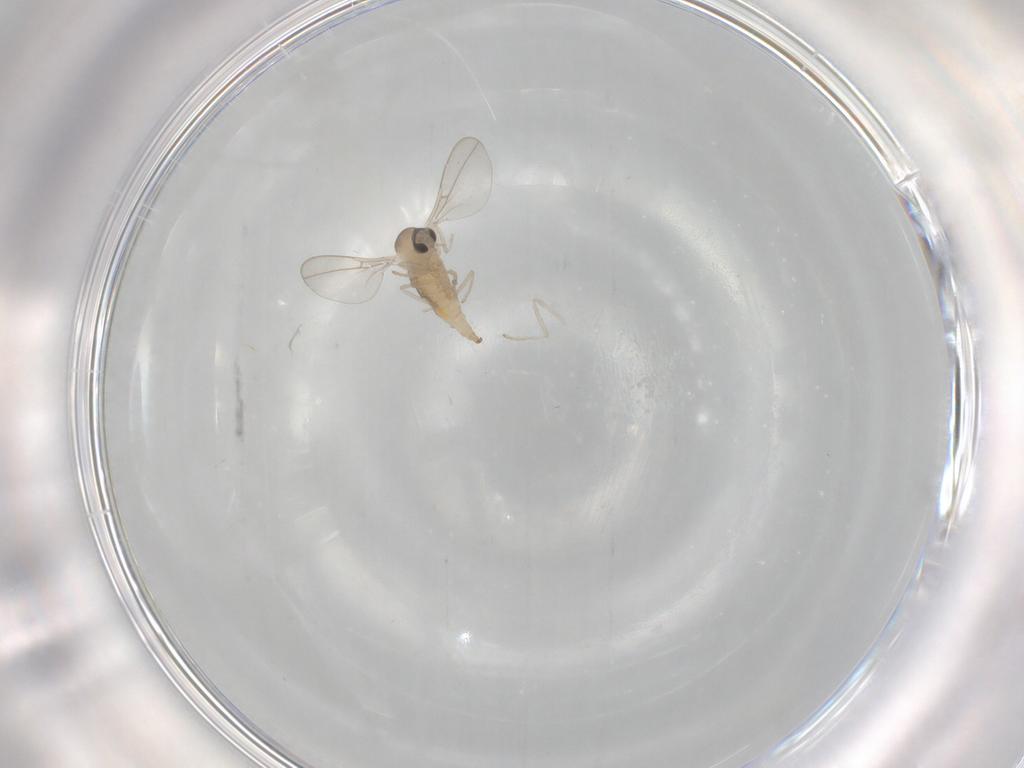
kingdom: Animalia
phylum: Arthropoda
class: Insecta
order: Diptera
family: Cecidomyiidae
